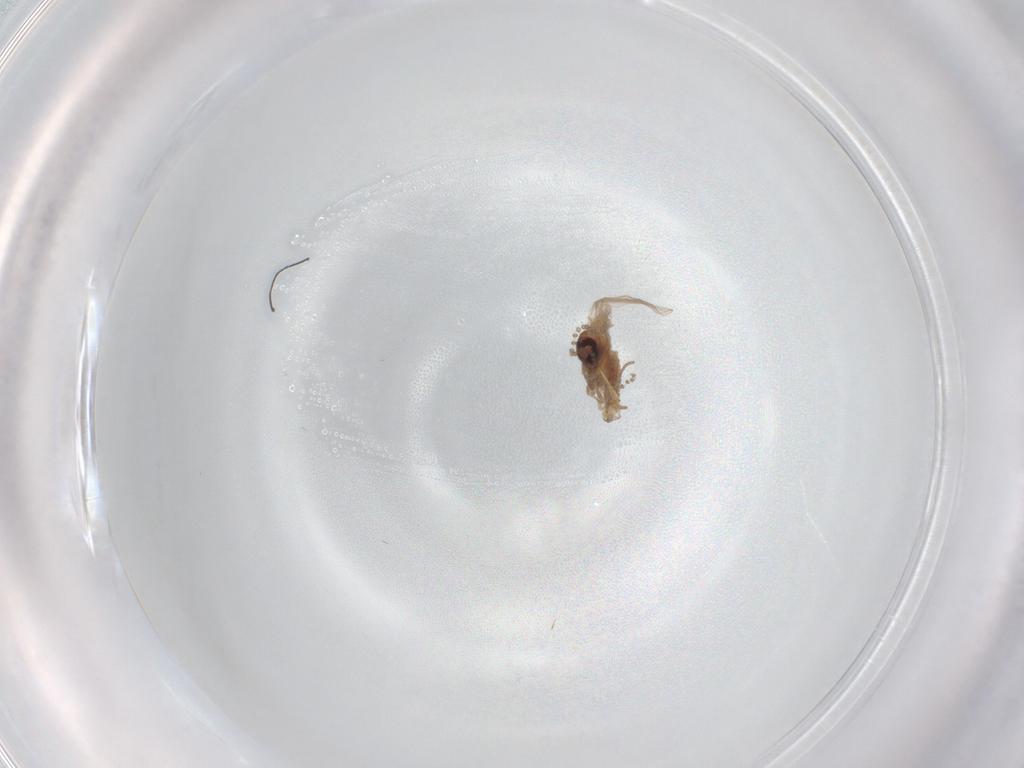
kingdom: Animalia
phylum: Arthropoda
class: Insecta
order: Diptera
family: Psychodidae
